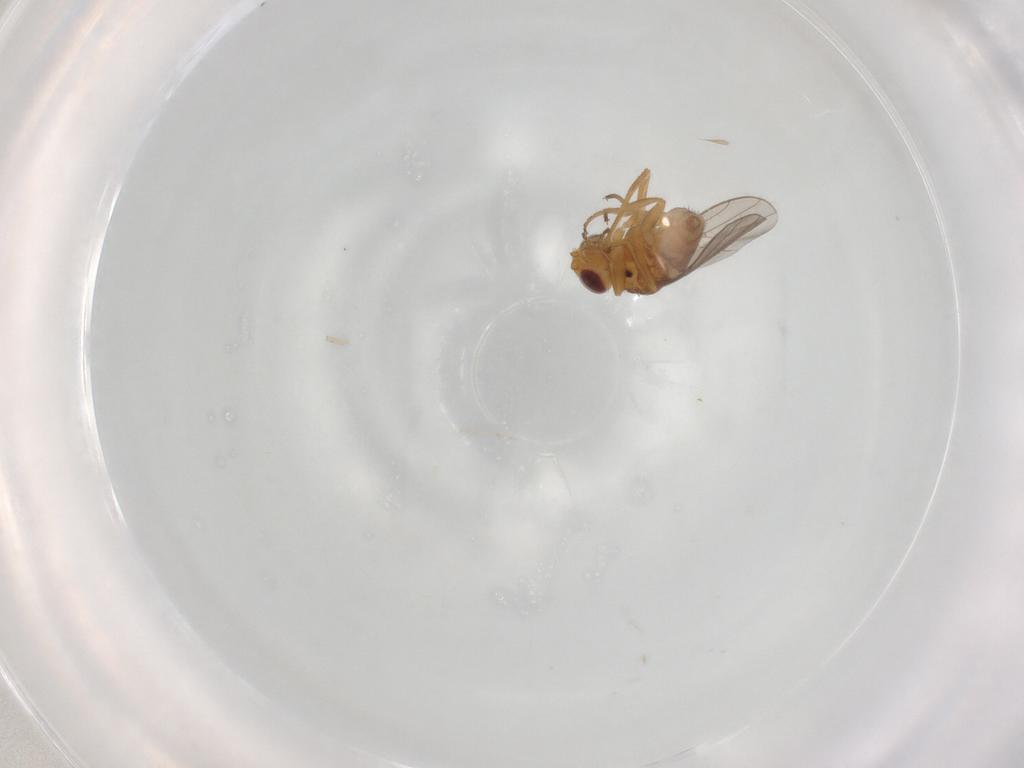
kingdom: Animalia
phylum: Arthropoda
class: Insecta
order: Diptera
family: Chloropidae
